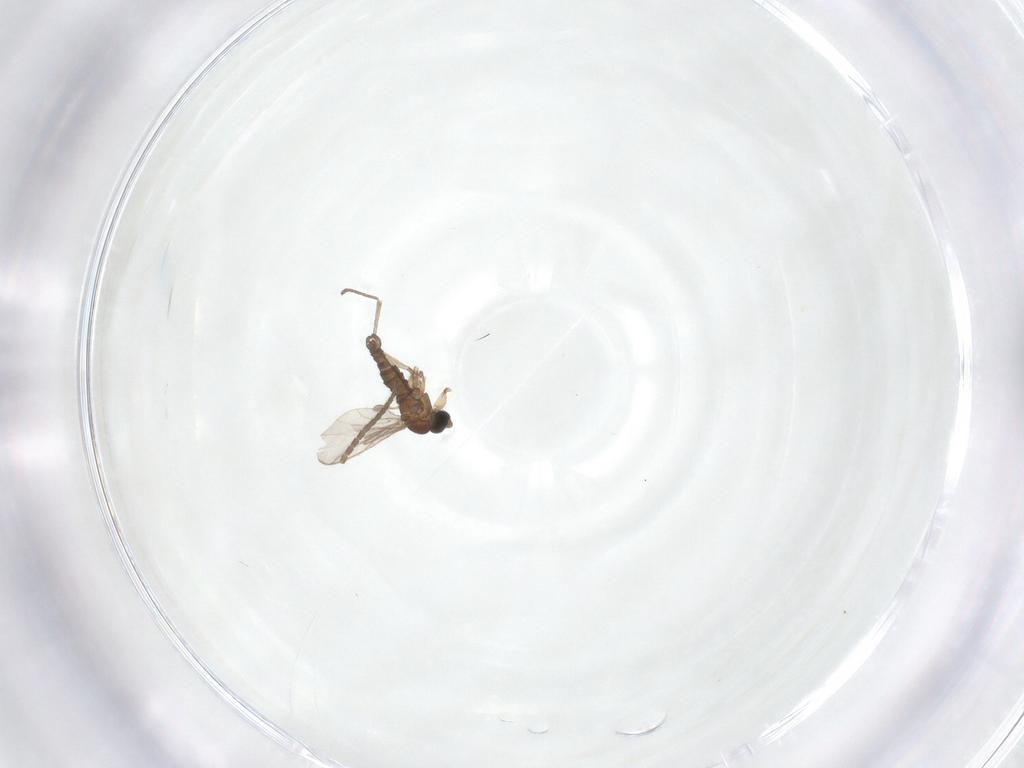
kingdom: Animalia
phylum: Arthropoda
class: Insecta
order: Diptera
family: Sciaridae
